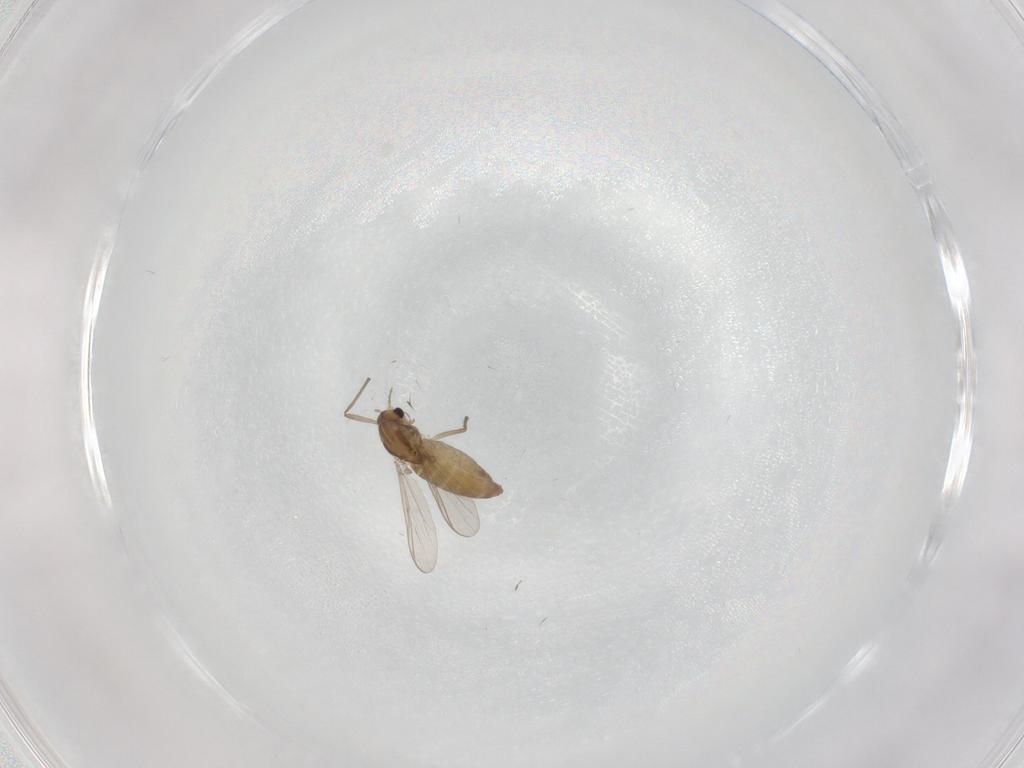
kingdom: Animalia
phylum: Arthropoda
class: Insecta
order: Diptera
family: Chironomidae
